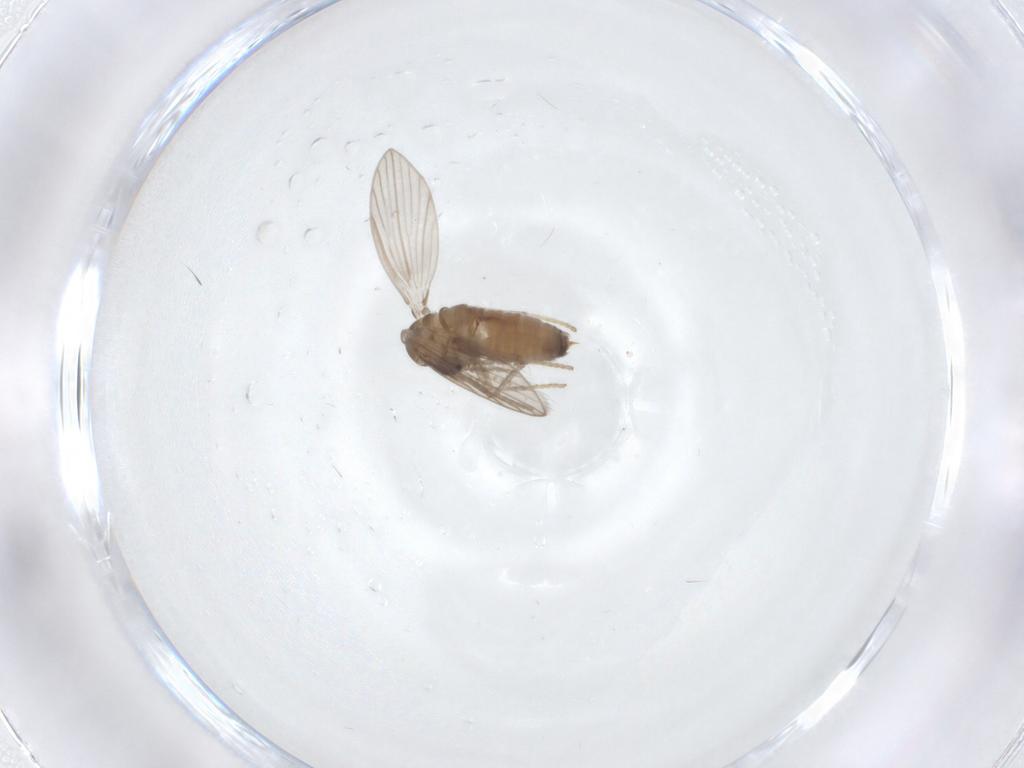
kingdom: Animalia
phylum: Arthropoda
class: Insecta
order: Diptera
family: Psychodidae
